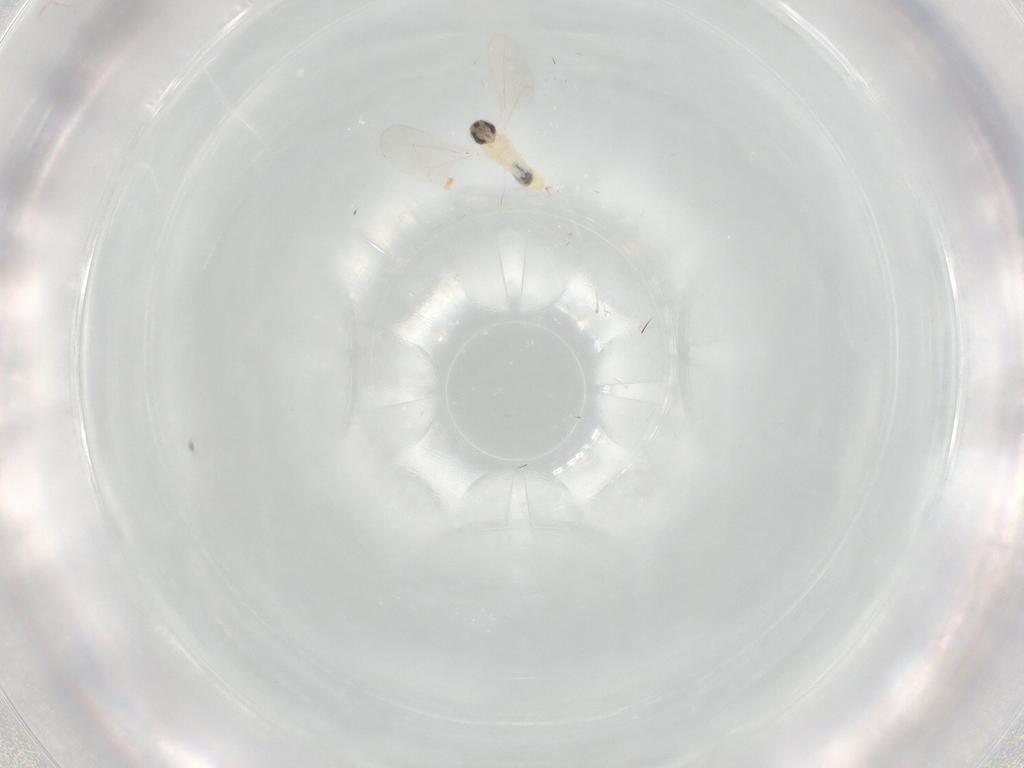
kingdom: Animalia
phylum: Arthropoda
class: Insecta
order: Diptera
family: Cecidomyiidae
